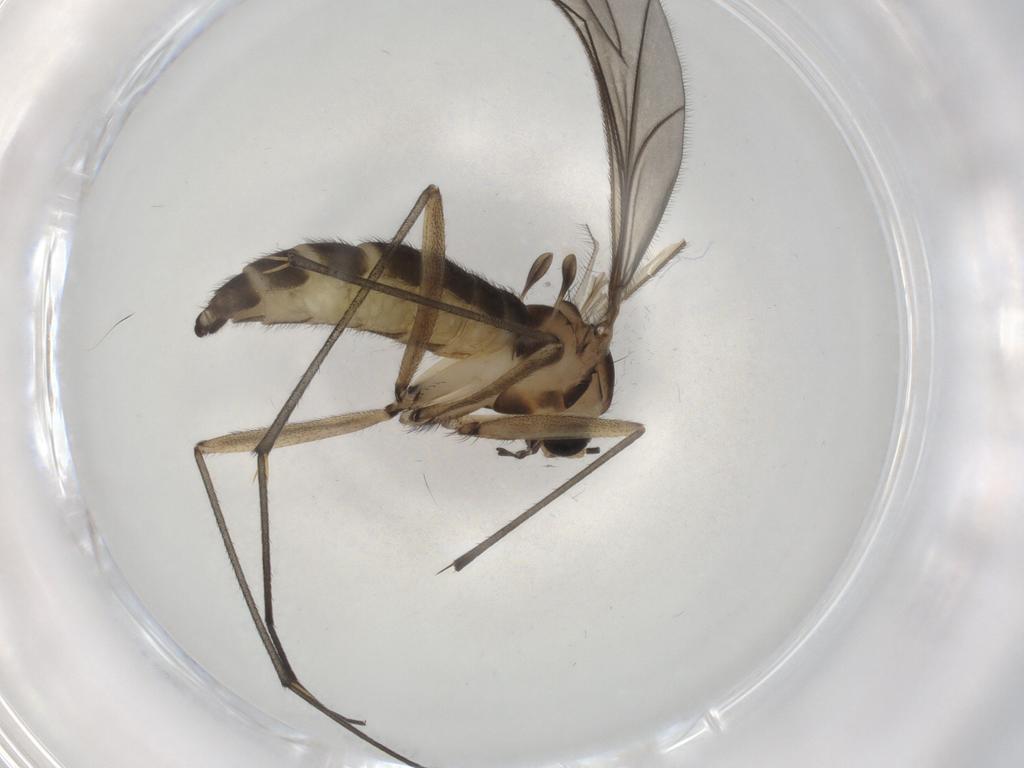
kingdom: Animalia
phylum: Arthropoda
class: Insecta
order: Diptera
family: Sciaridae
